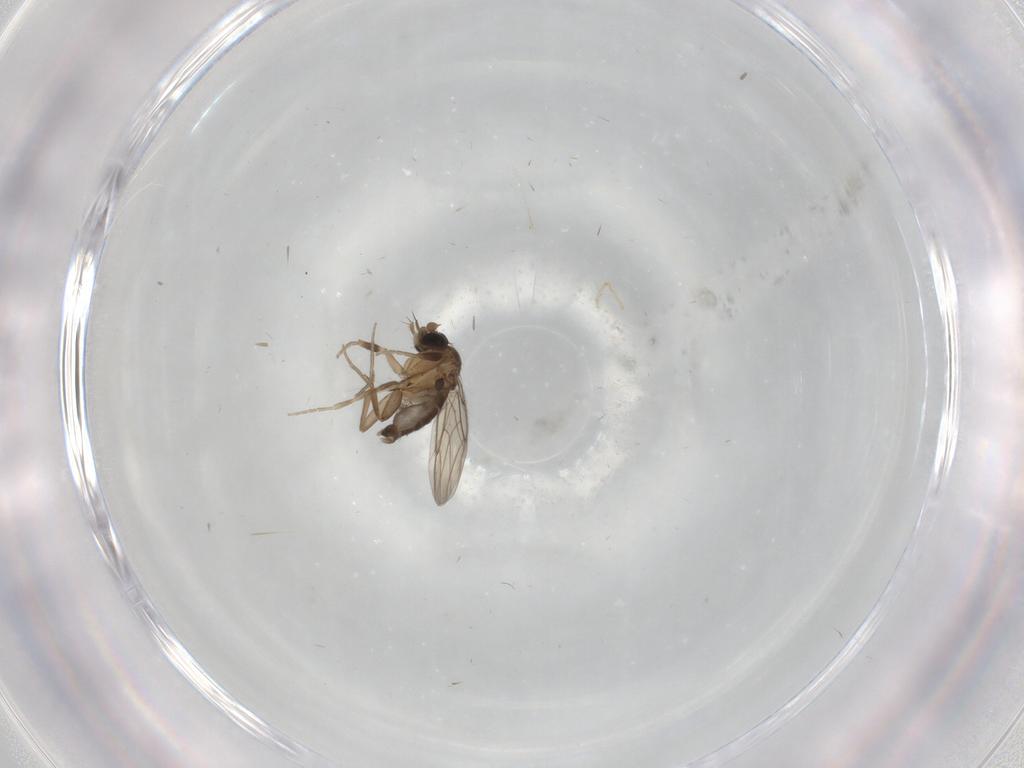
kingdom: Animalia
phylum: Arthropoda
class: Insecta
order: Diptera
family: Phoridae
